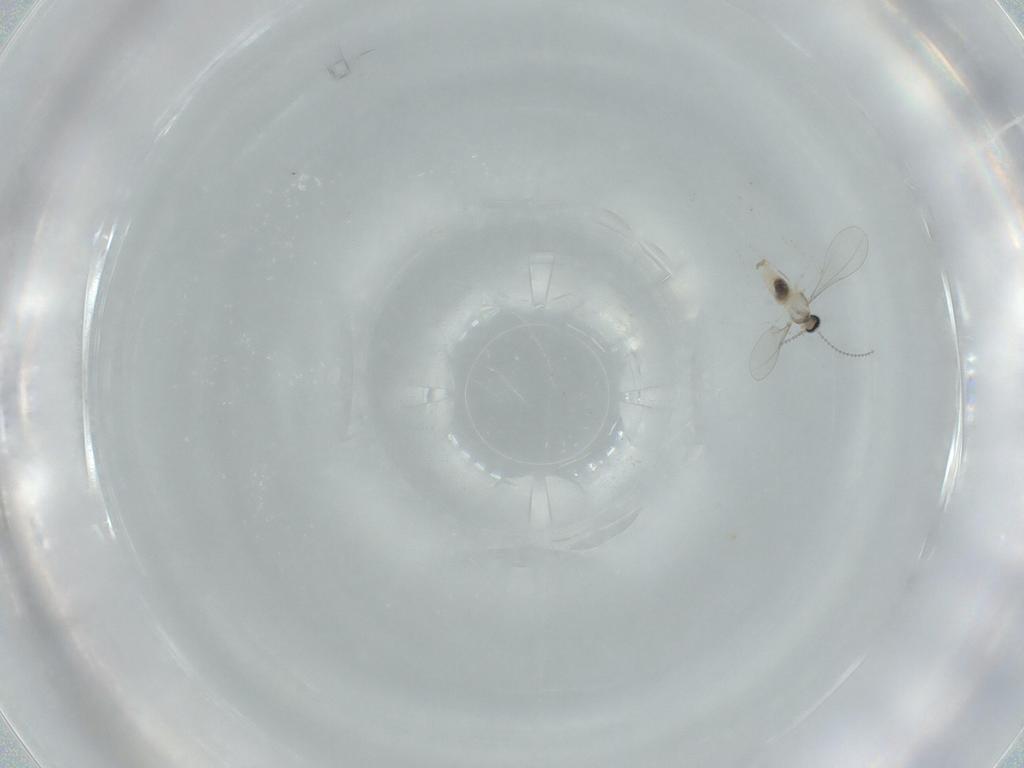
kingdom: Animalia
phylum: Arthropoda
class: Insecta
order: Diptera
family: Cecidomyiidae
